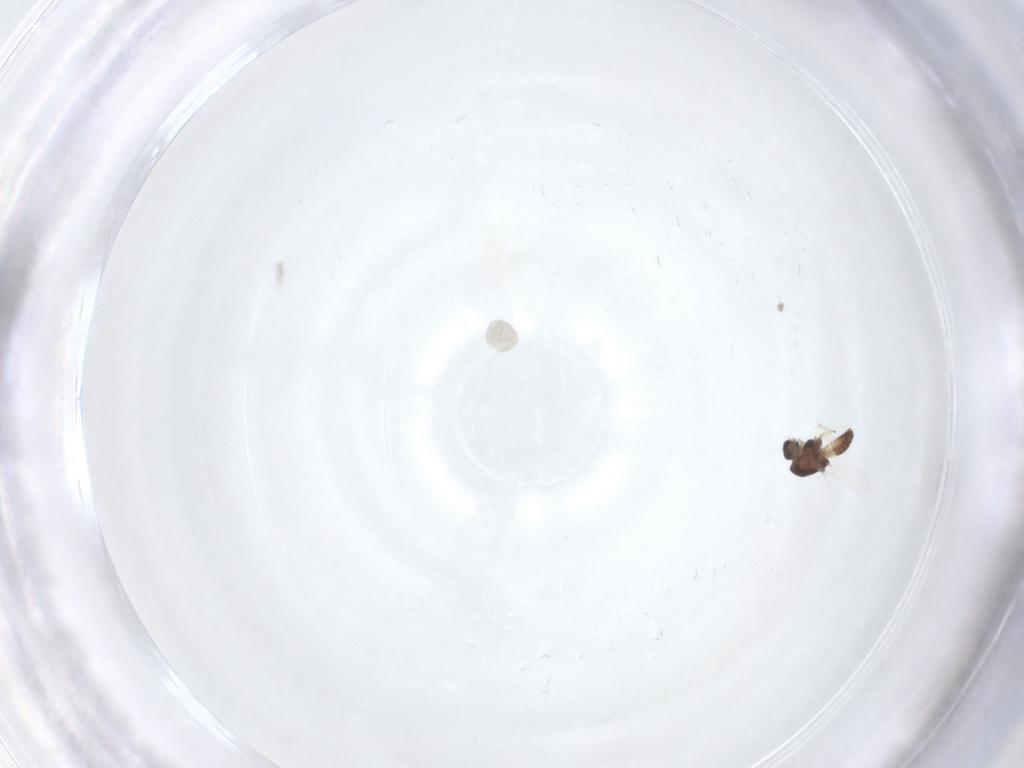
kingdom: Animalia
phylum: Arthropoda
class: Insecta
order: Diptera
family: Chironomidae
